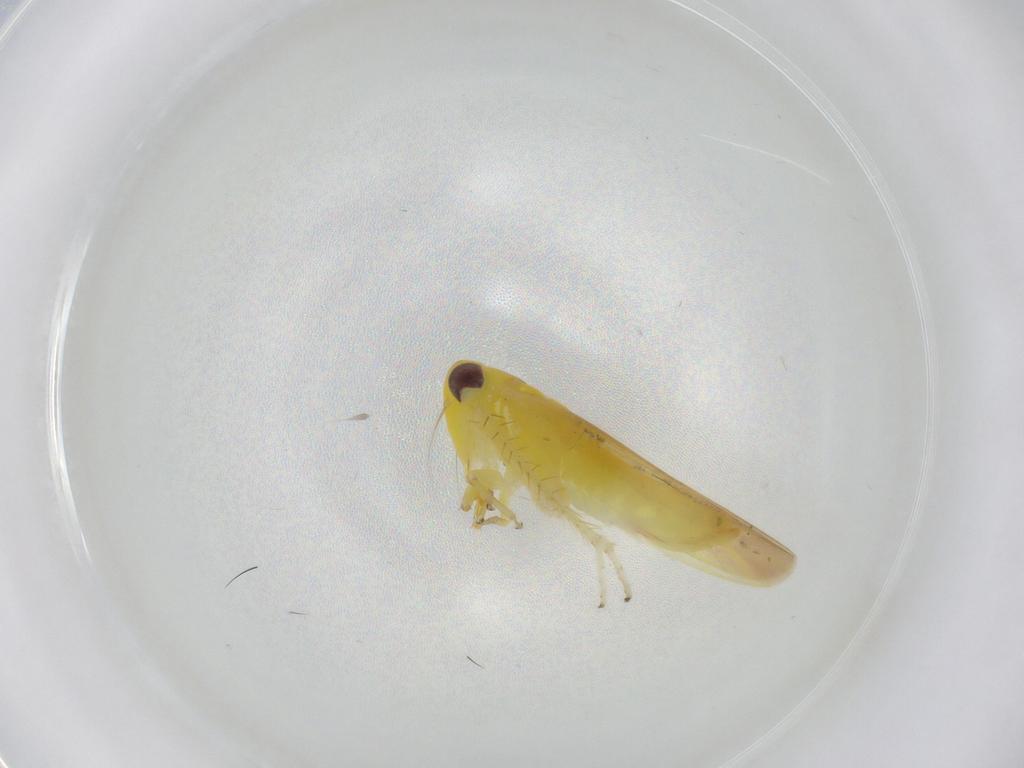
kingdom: Animalia
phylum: Arthropoda
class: Insecta
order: Hemiptera
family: Cicadellidae
